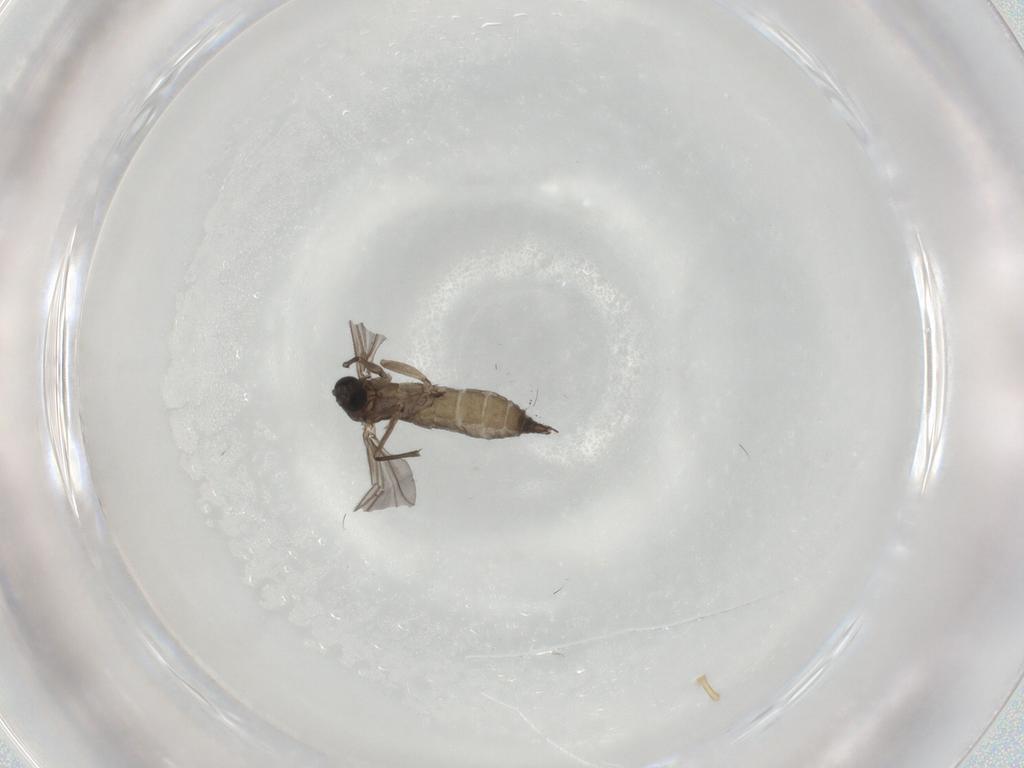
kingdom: Animalia
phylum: Arthropoda
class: Insecta
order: Diptera
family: Sciaridae
